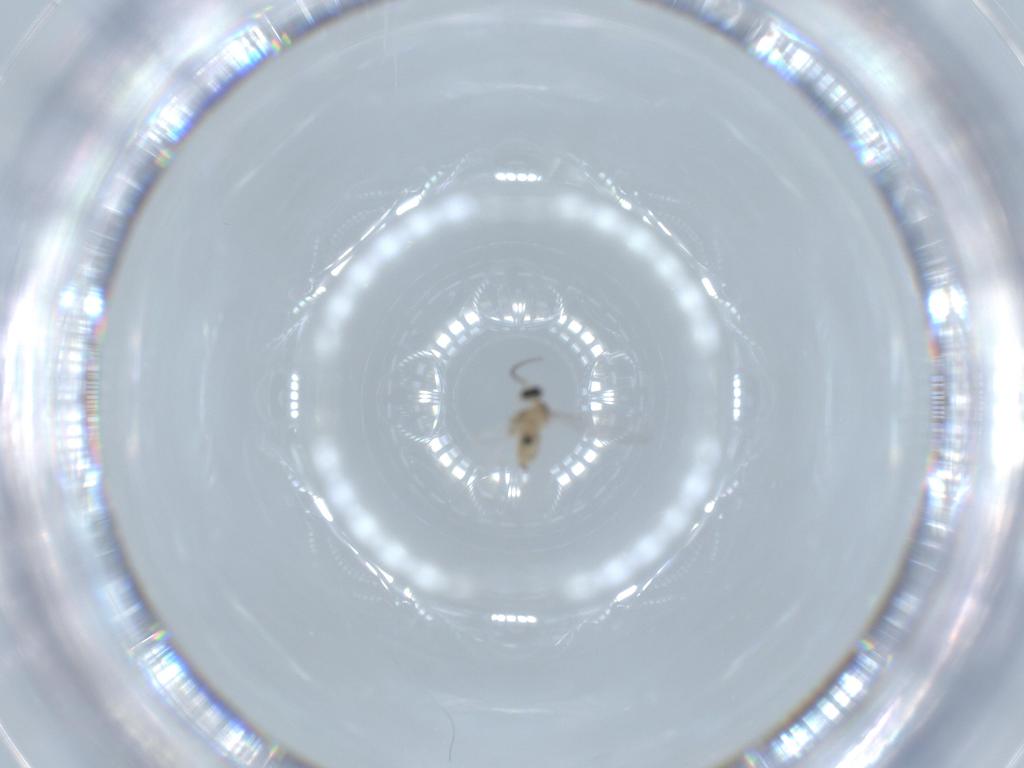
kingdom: Animalia
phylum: Arthropoda
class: Insecta
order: Diptera
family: Cecidomyiidae
